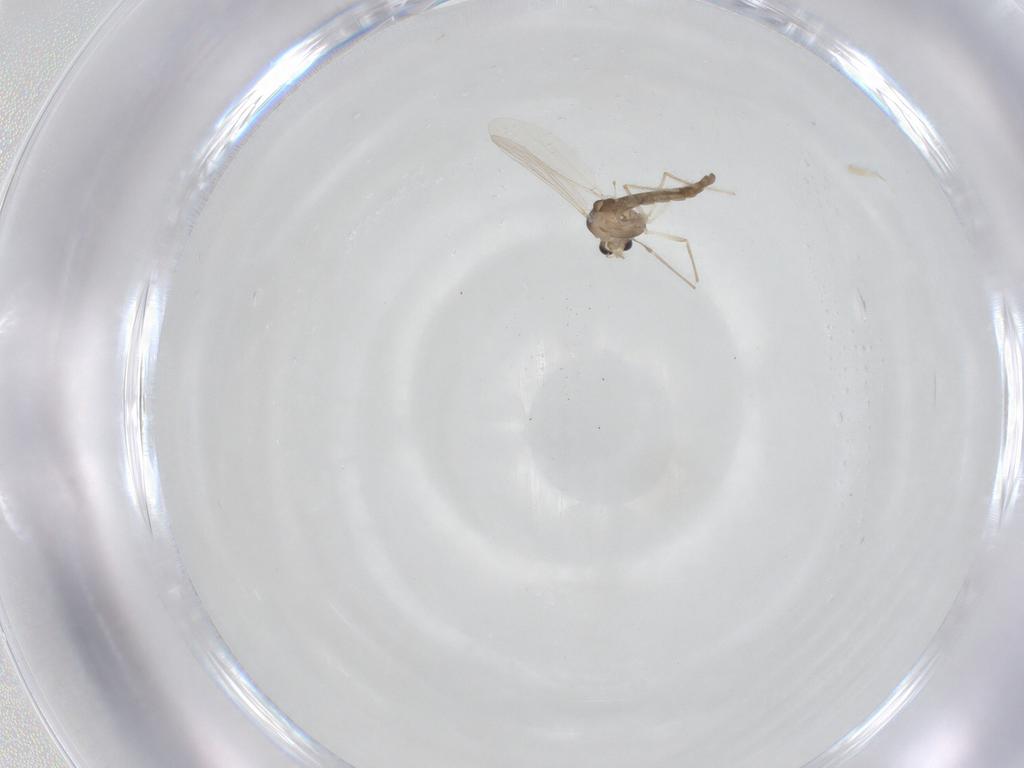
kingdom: Animalia
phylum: Arthropoda
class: Insecta
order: Diptera
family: Chironomidae
